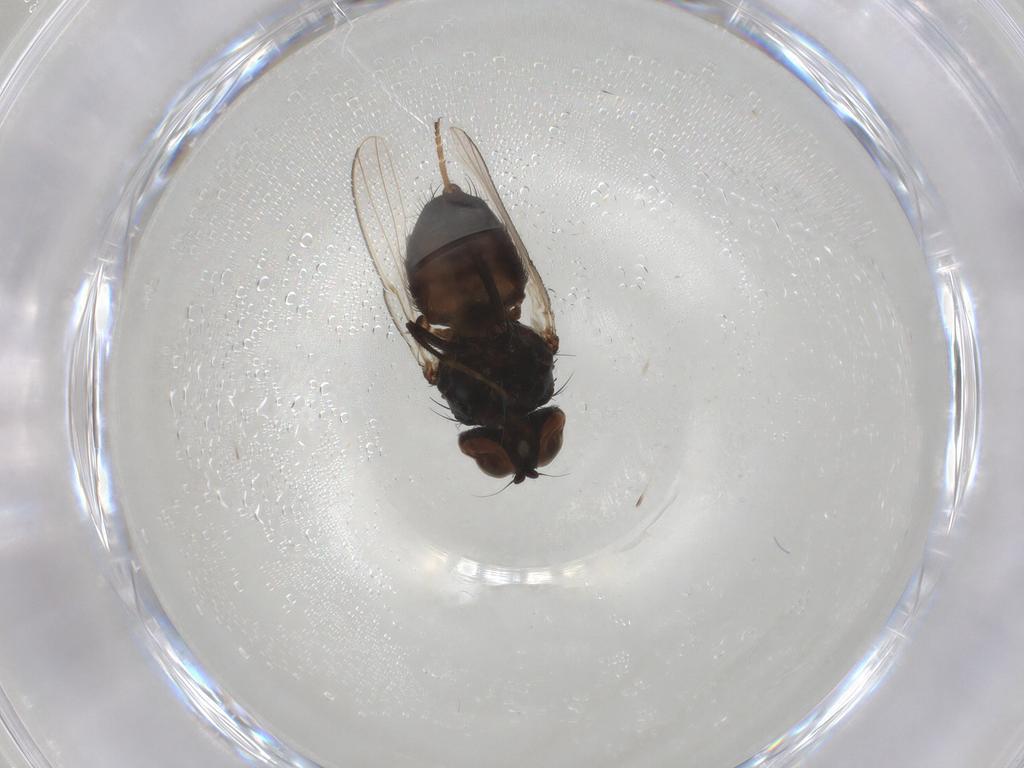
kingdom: Animalia
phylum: Arthropoda
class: Insecta
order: Diptera
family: Milichiidae
